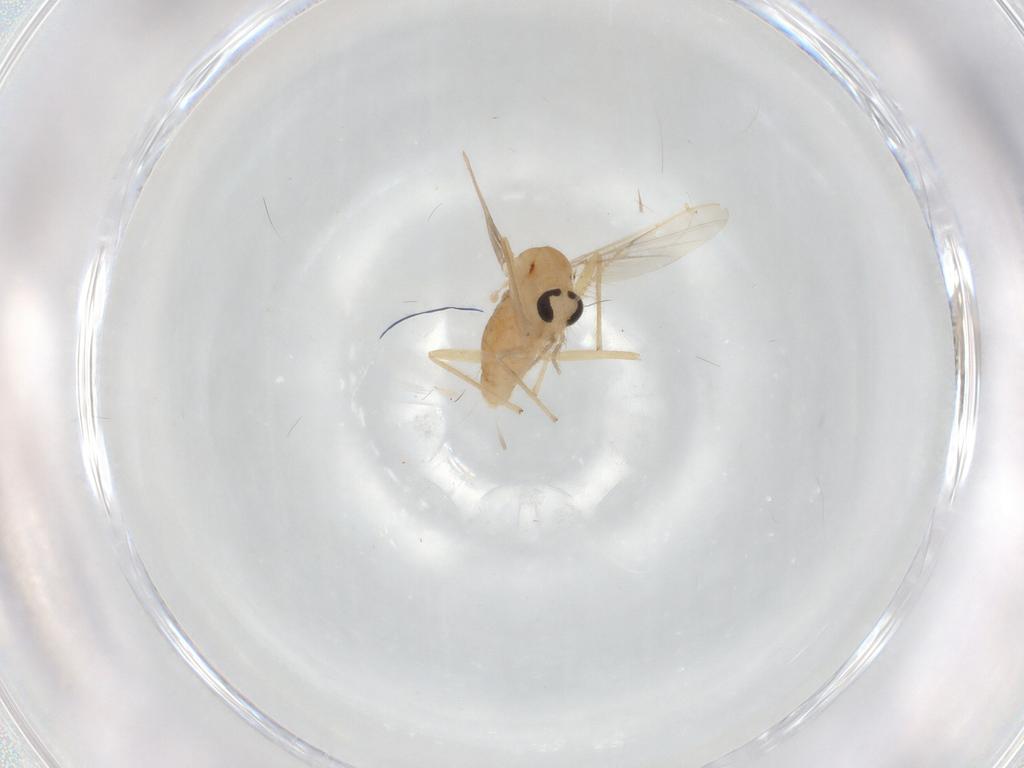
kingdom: Animalia
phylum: Arthropoda
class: Insecta
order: Diptera
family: Chironomidae
